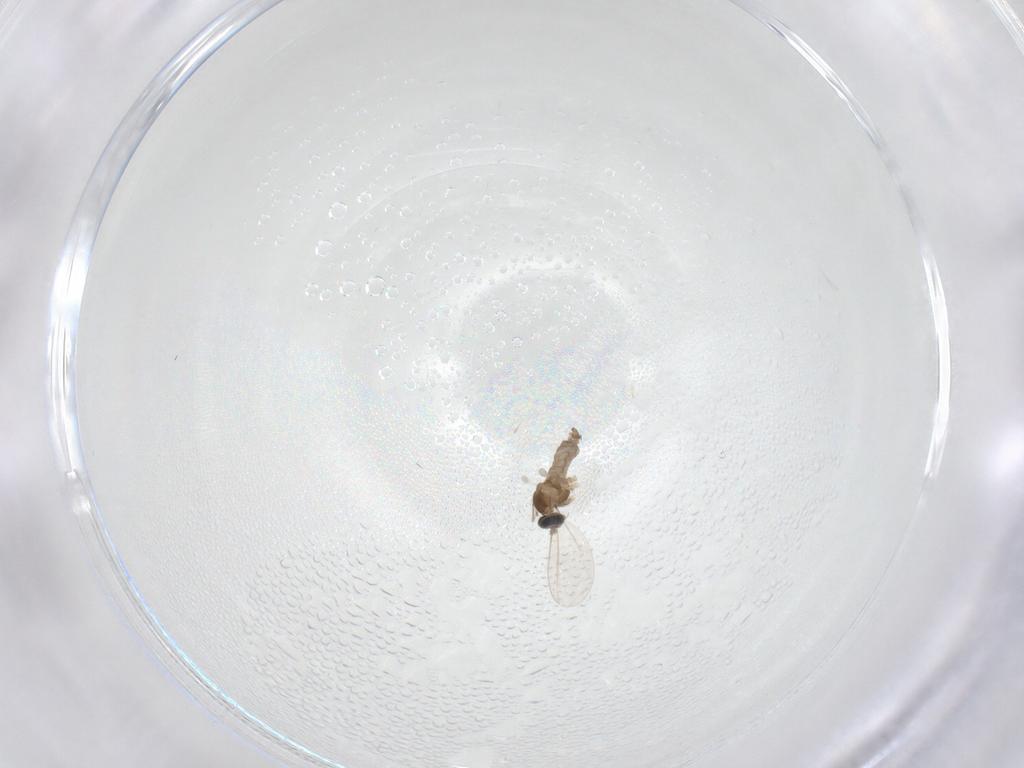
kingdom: Animalia
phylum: Arthropoda
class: Insecta
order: Diptera
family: Cecidomyiidae
